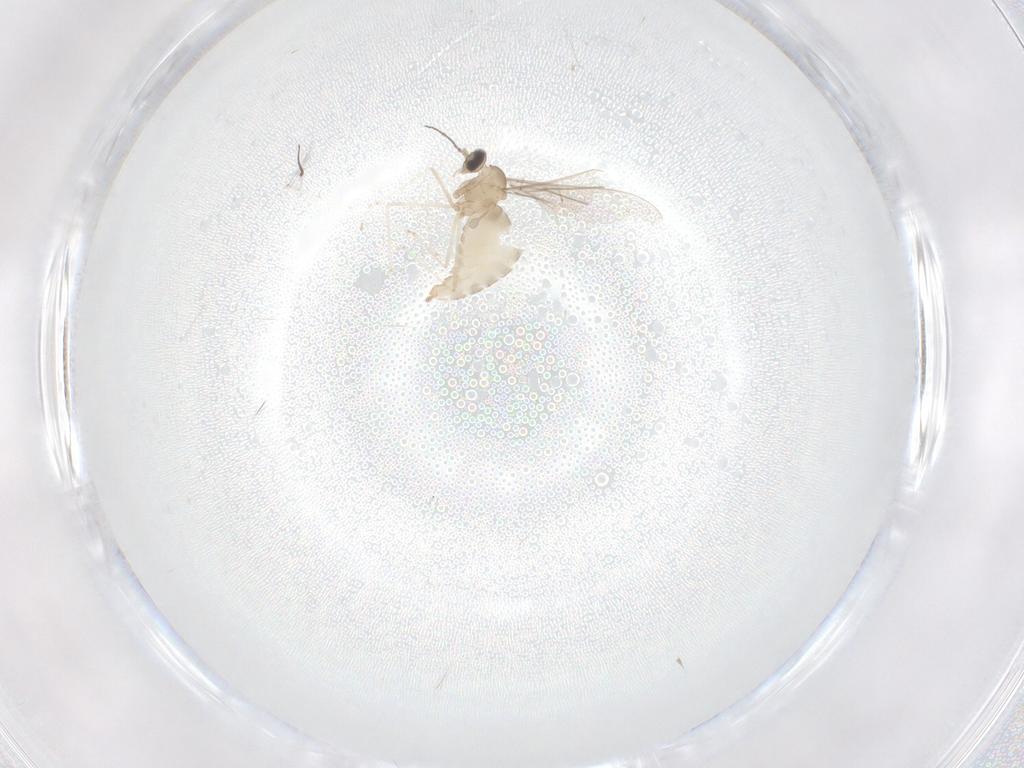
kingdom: Animalia
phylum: Arthropoda
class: Insecta
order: Diptera
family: Cecidomyiidae
